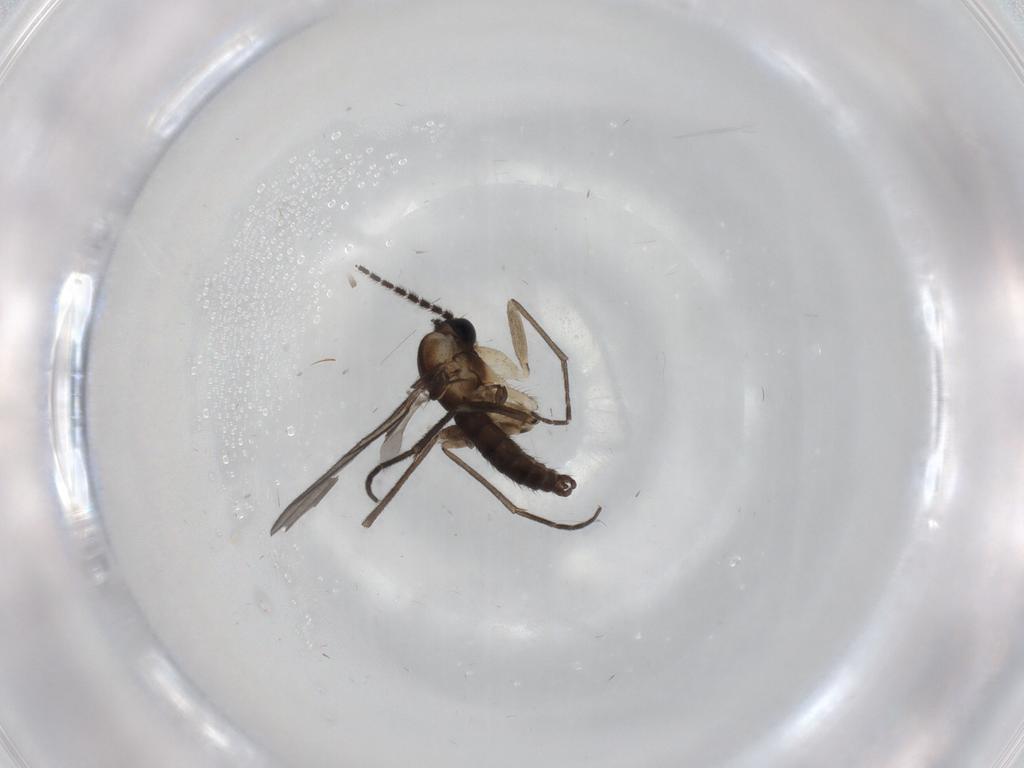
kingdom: Animalia
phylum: Arthropoda
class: Insecta
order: Diptera
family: Sciaridae
